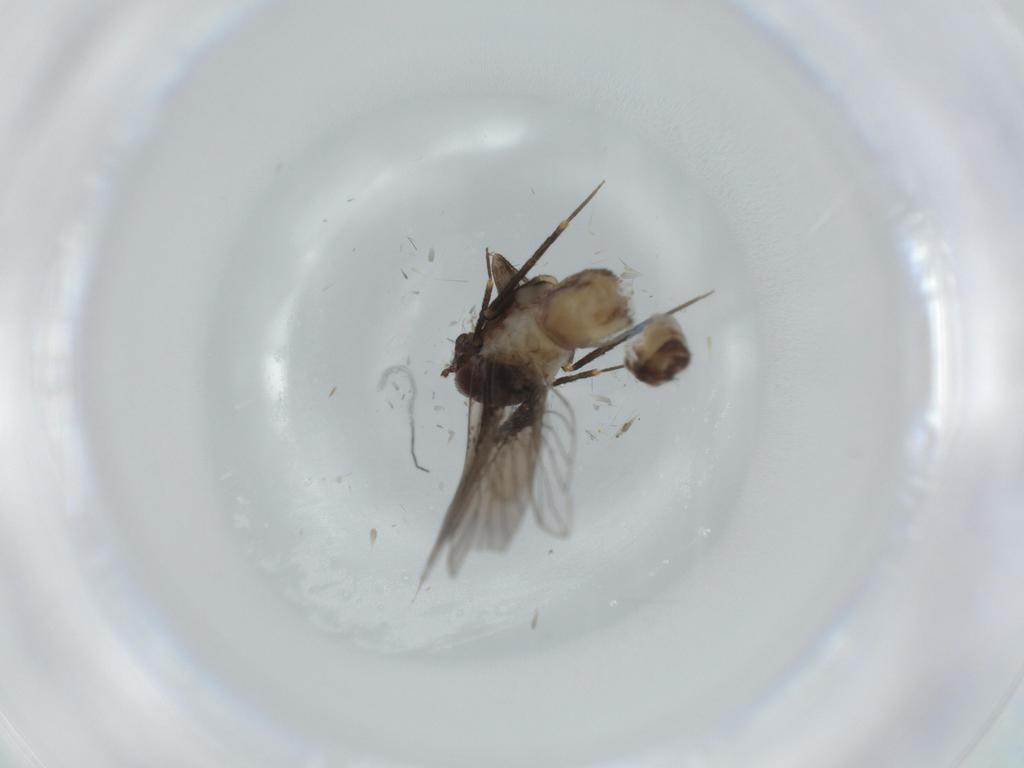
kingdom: Animalia
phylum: Arthropoda
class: Insecta
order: Psocodea
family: Lepidopsocidae
